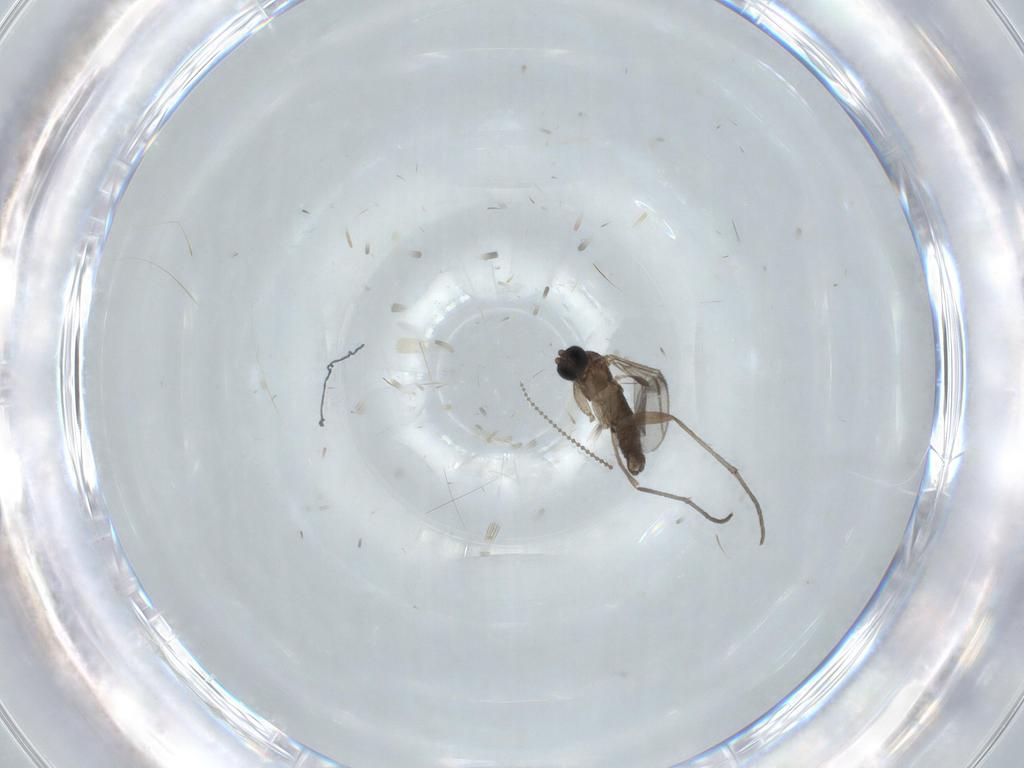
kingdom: Animalia
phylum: Arthropoda
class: Insecta
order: Diptera
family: Sciaridae
